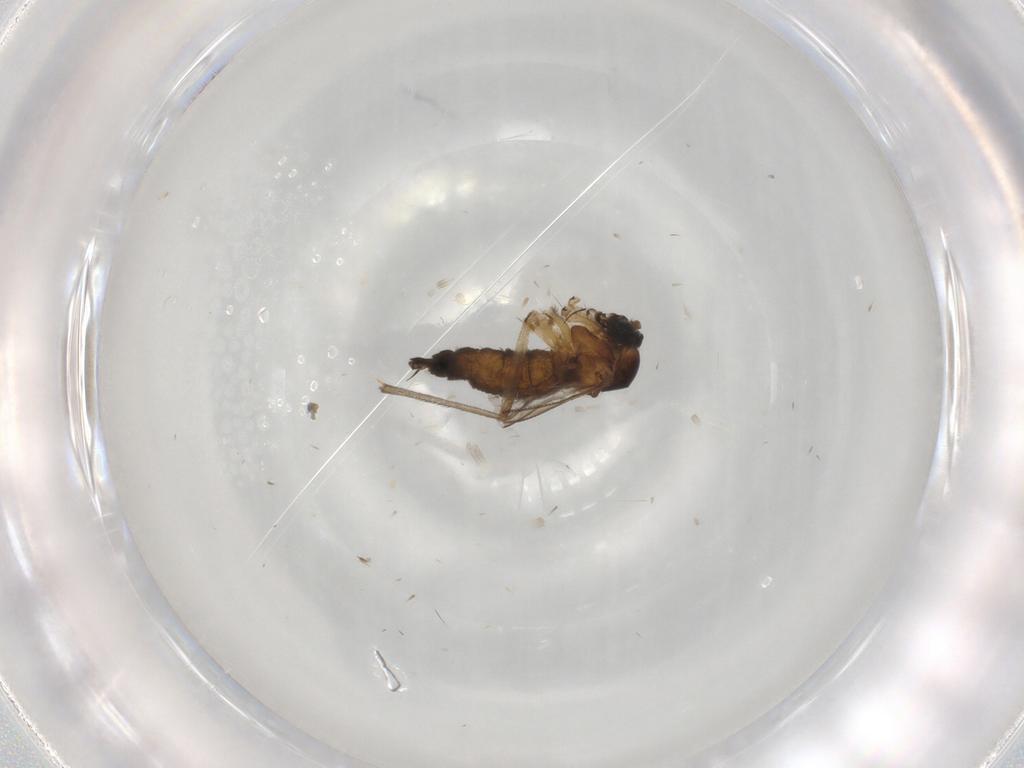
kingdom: Animalia
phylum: Arthropoda
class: Insecta
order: Diptera
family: Sciaridae
